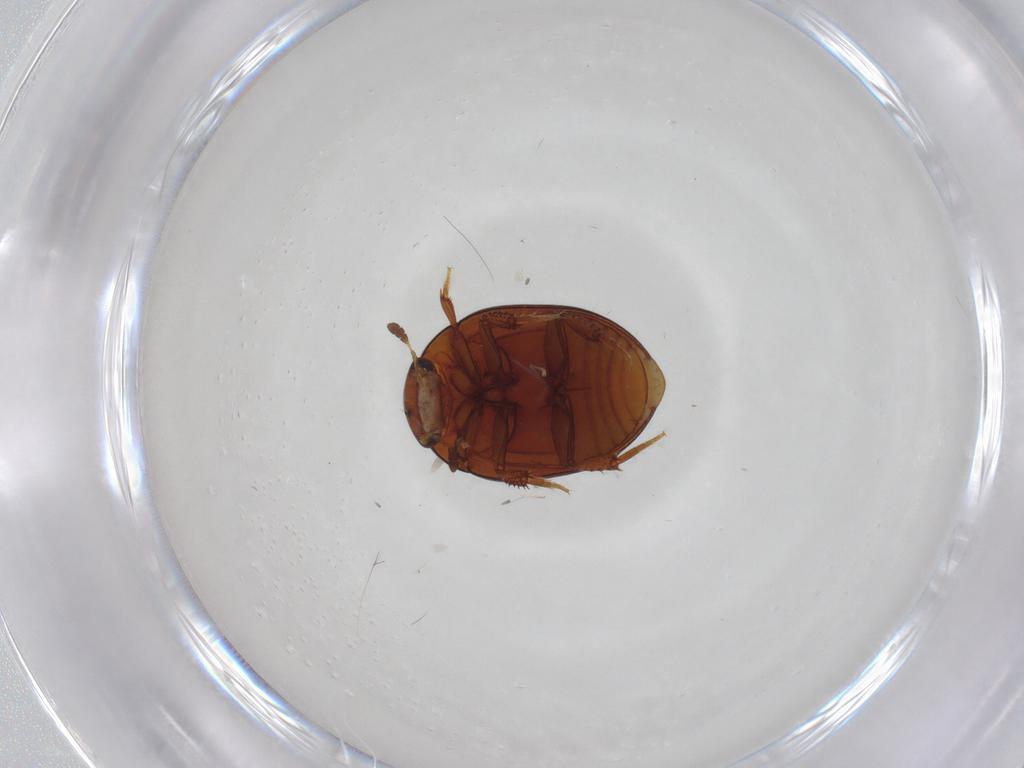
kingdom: Animalia
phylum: Arthropoda
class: Insecta
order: Coleoptera
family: Hydrophilidae
